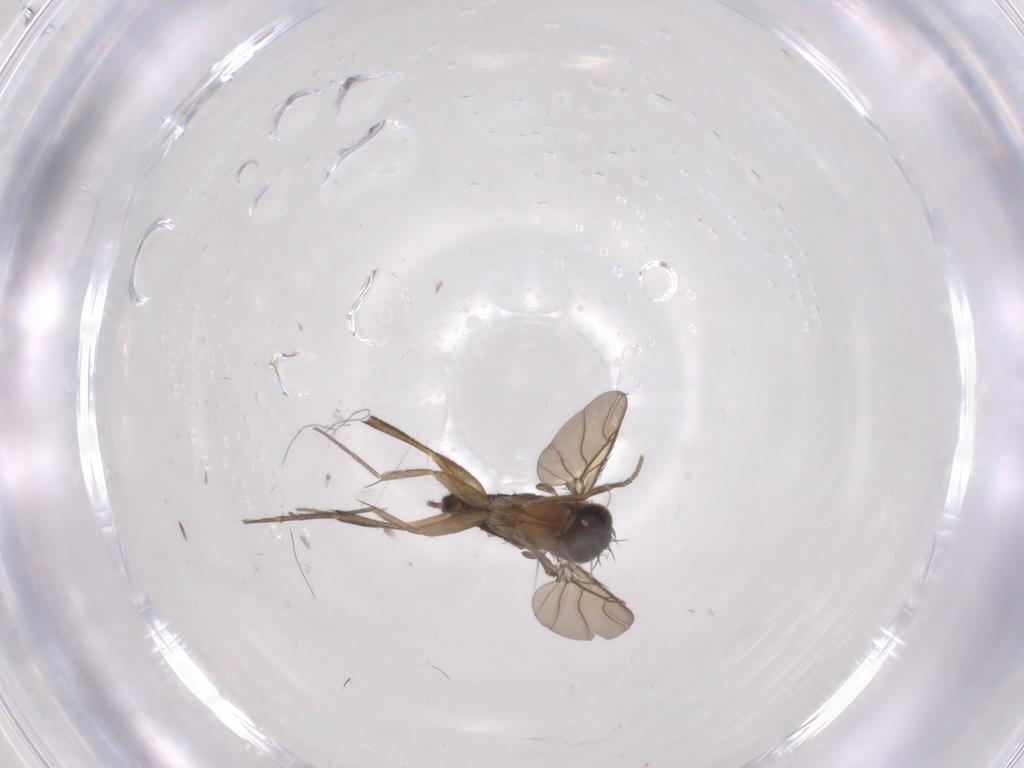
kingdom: Animalia
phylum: Arthropoda
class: Insecta
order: Diptera
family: Phoridae
